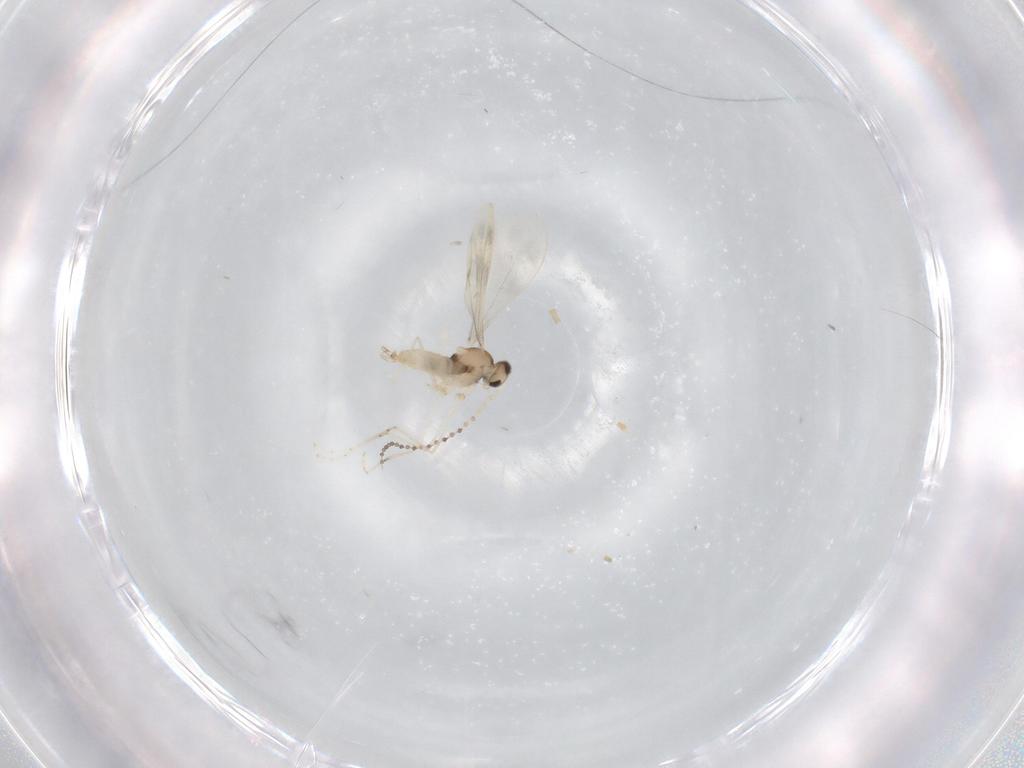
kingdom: Animalia
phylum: Arthropoda
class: Insecta
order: Diptera
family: Cecidomyiidae
